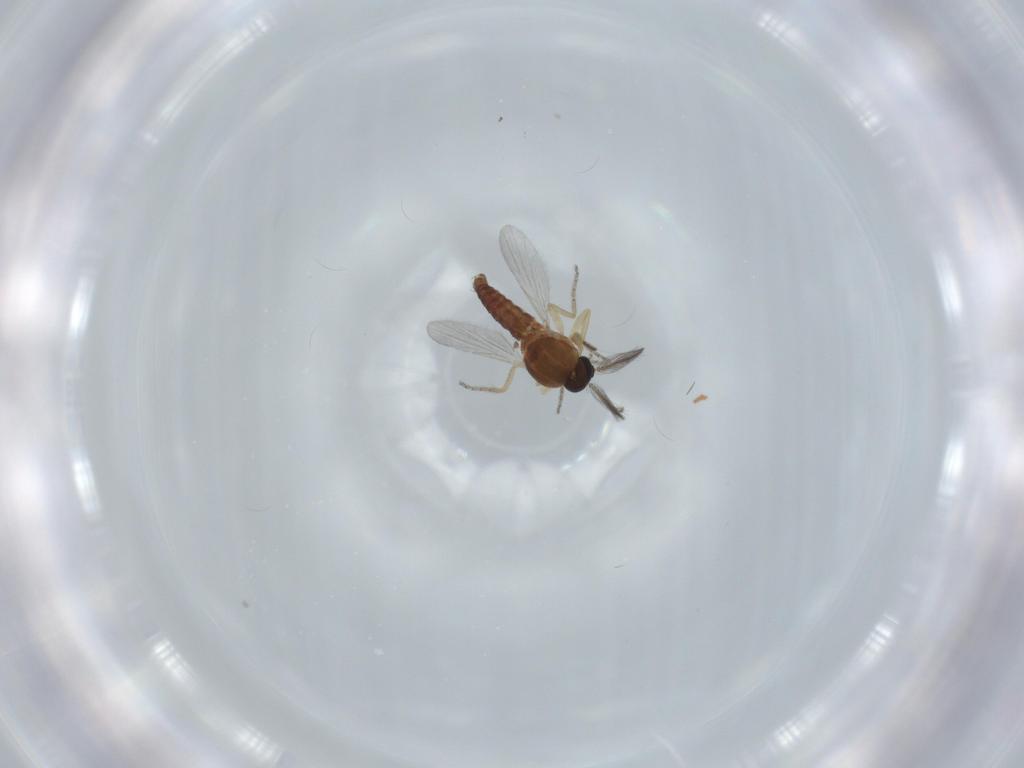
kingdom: Animalia
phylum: Arthropoda
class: Insecta
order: Diptera
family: Ceratopogonidae
